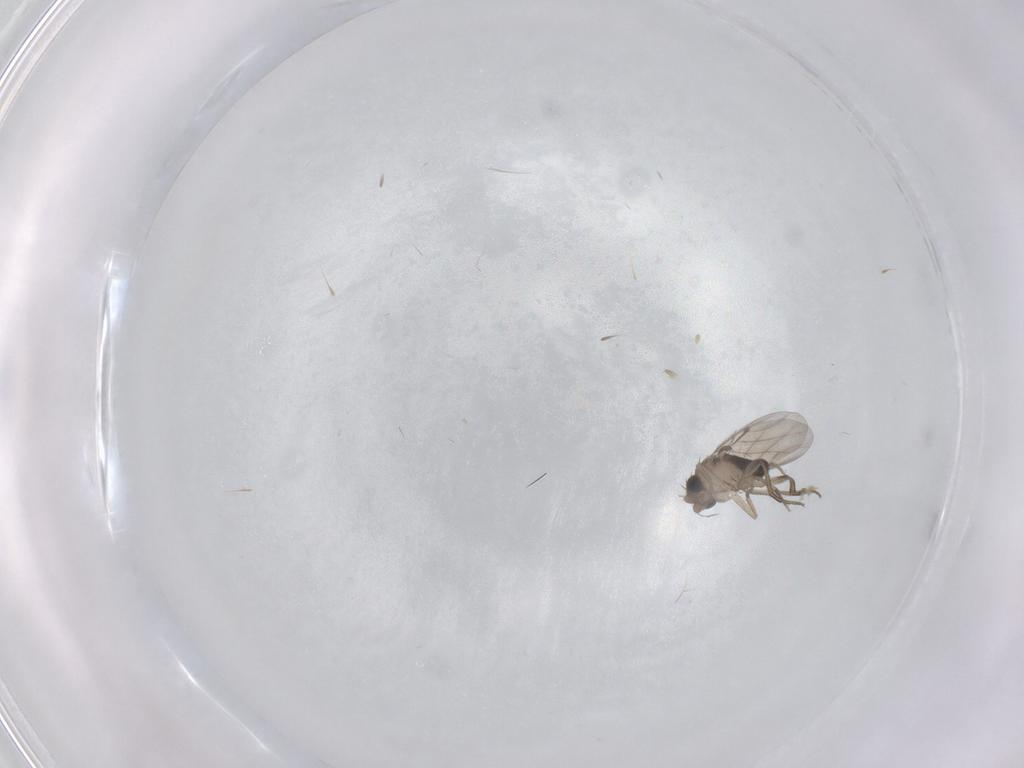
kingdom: Animalia
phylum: Arthropoda
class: Insecta
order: Diptera
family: Phoridae
